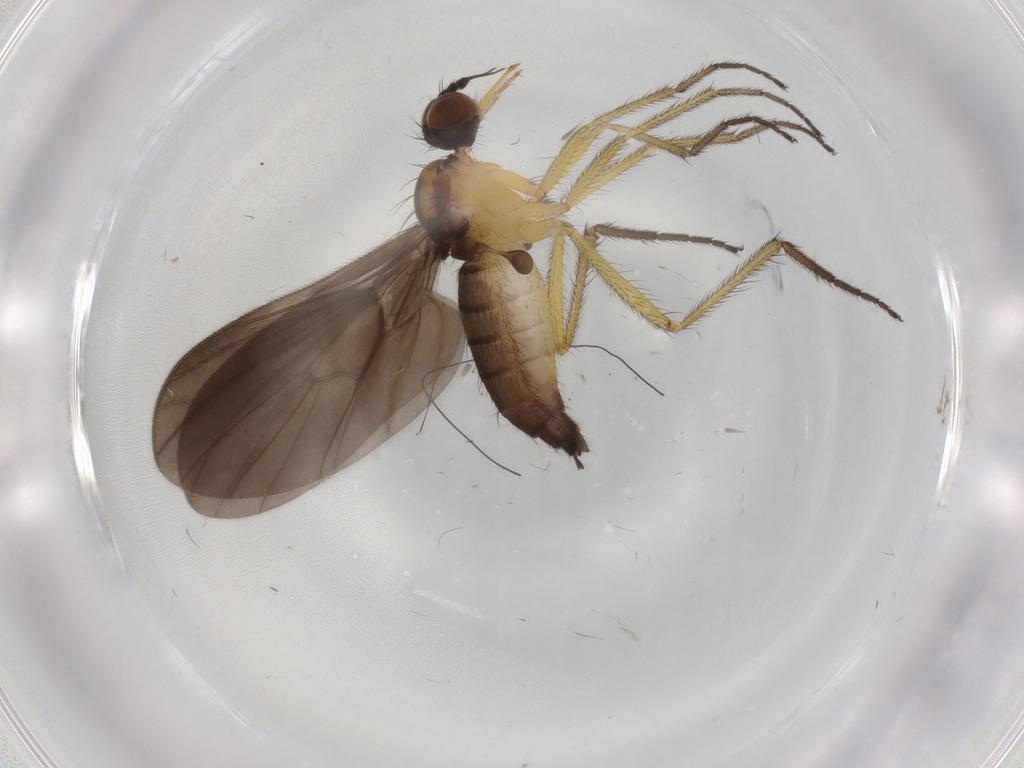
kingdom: Animalia
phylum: Arthropoda
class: Insecta
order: Diptera
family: Empididae
